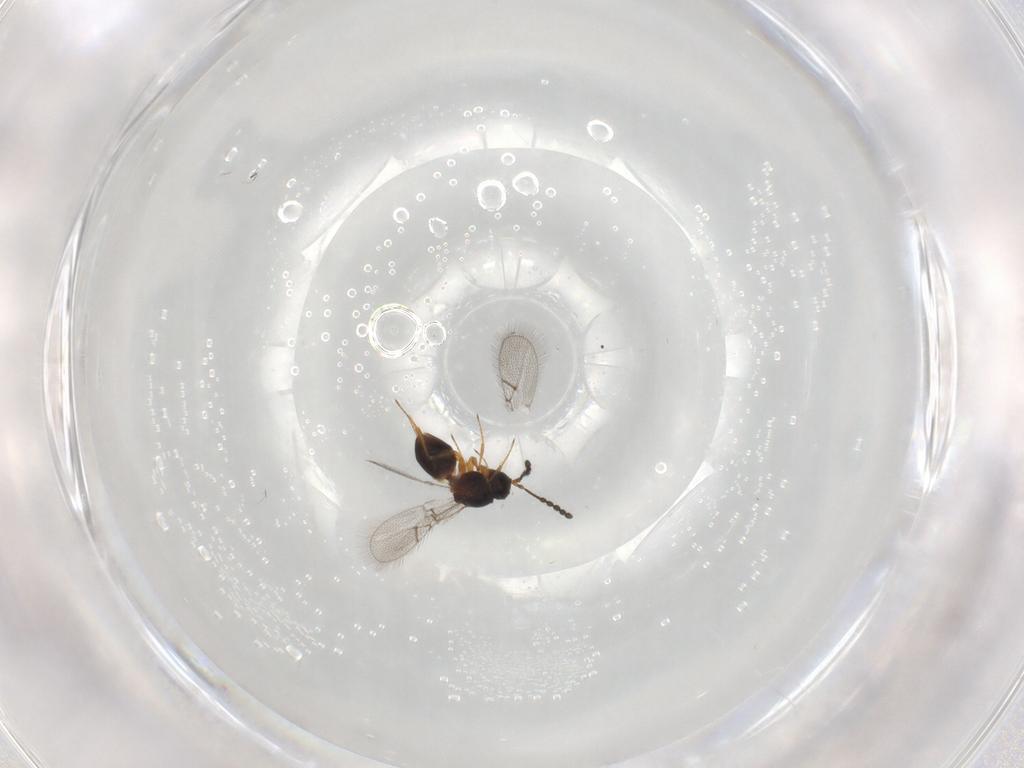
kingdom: Animalia
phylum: Arthropoda
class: Insecta
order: Hymenoptera
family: Figitidae
